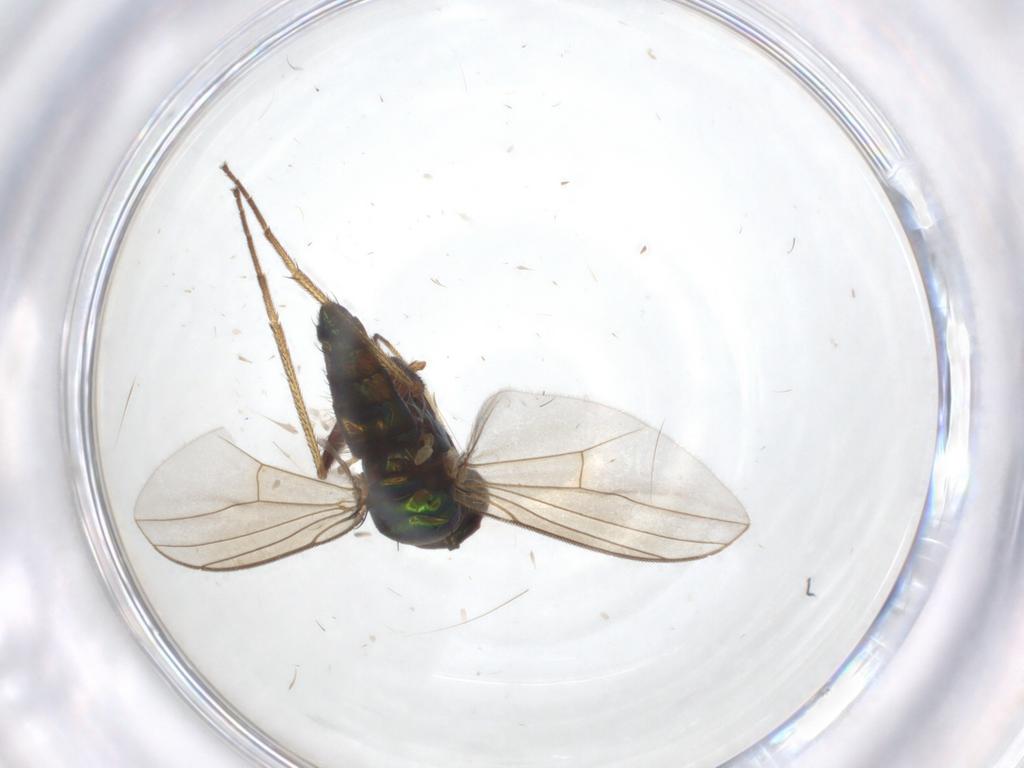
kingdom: Animalia
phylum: Arthropoda
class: Insecta
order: Diptera
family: Dolichopodidae
